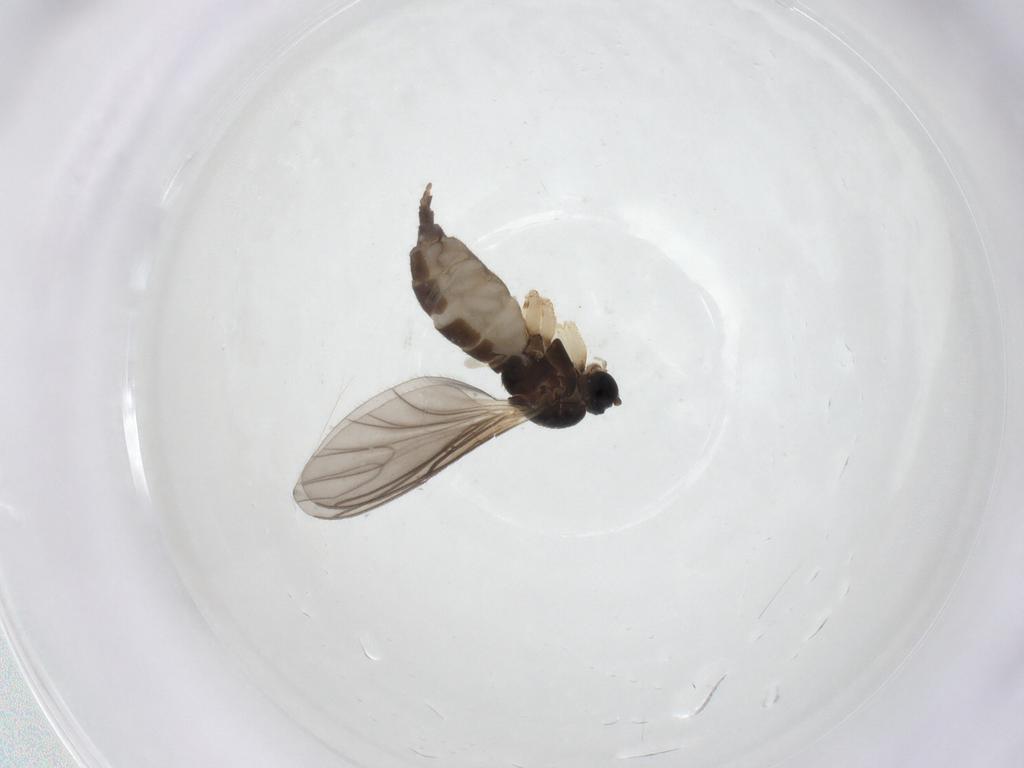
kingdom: Animalia
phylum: Arthropoda
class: Insecta
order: Diptera
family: Sciaridae
